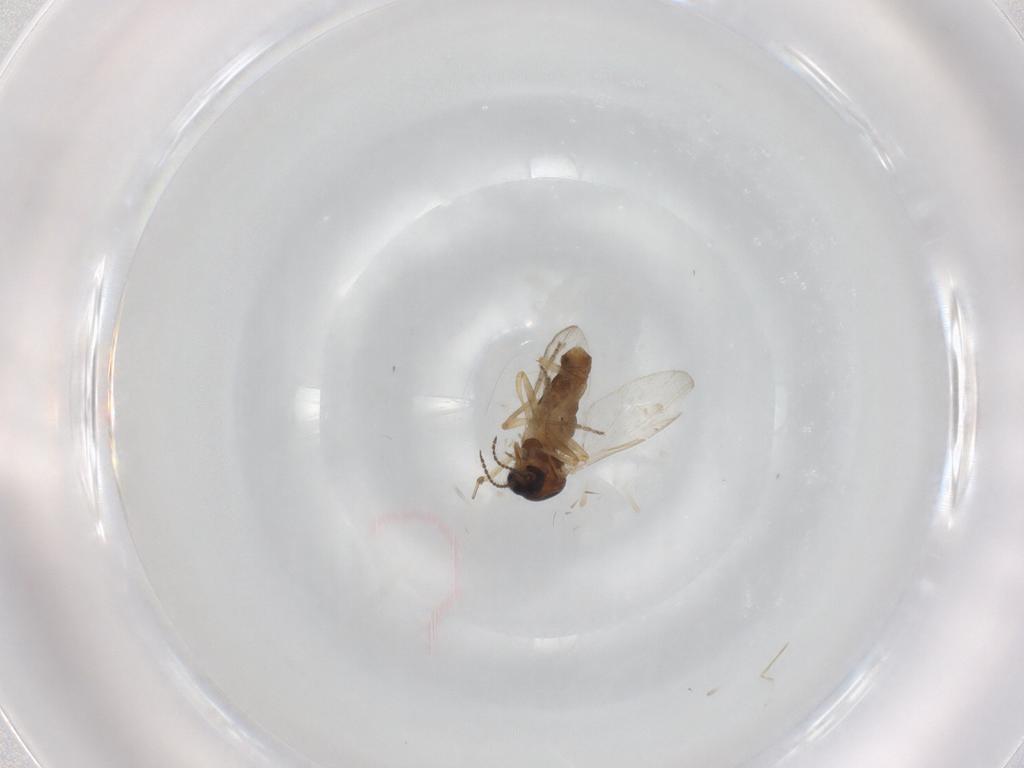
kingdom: Animalia
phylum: Arthropoda
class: Insecta
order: Diptera
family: Ceratopogonidae
